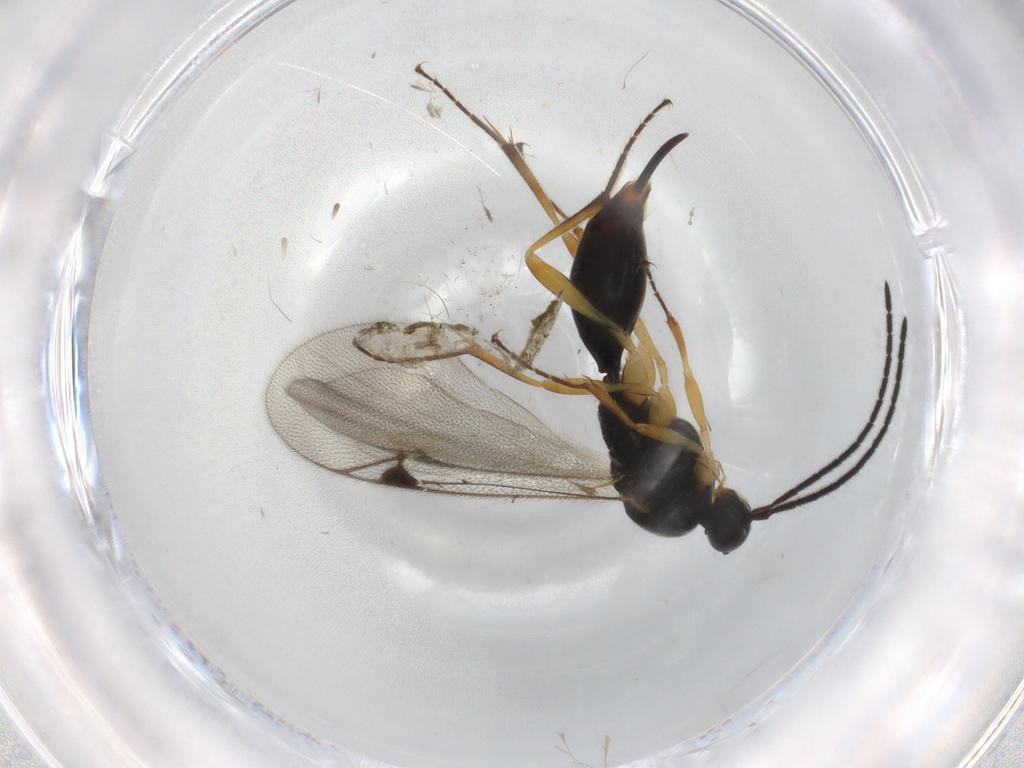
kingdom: Animalia
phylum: Arthropoda
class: Insecta
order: Hymenoptera
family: Proctotrupidae
